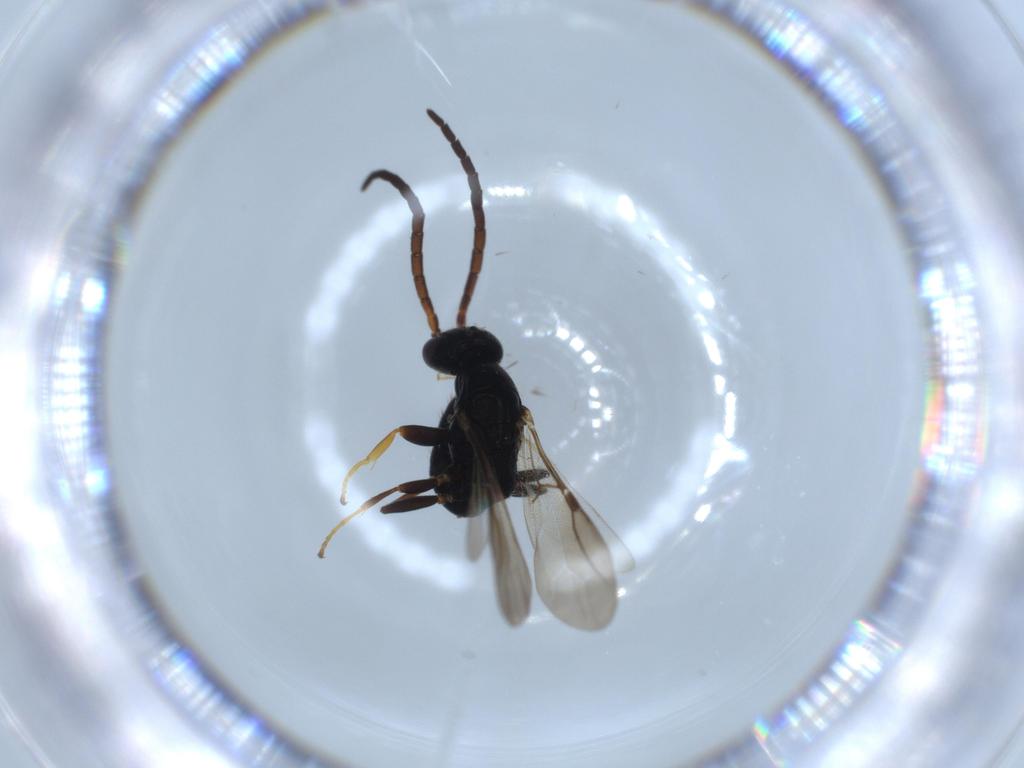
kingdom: Animalia
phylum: Arthropoda
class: Insecta
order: Hymenoptera
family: Bethylidae
